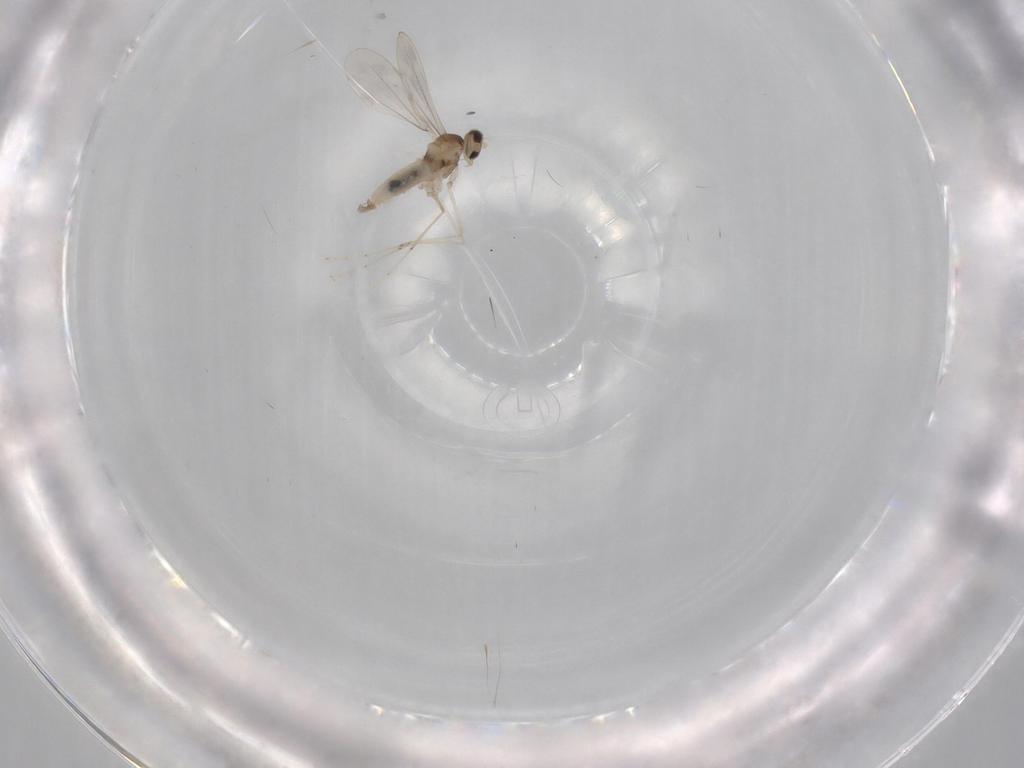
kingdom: Animalia
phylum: Arthropoda
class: Insecta
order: Diptera
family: Cecidomyiidae
